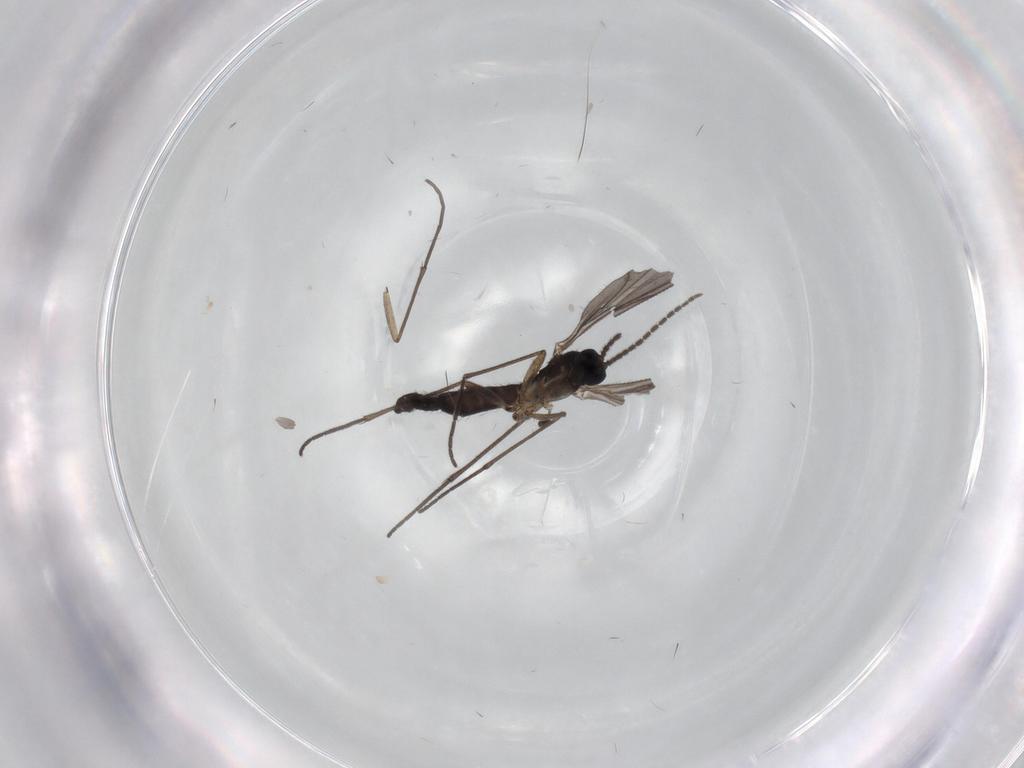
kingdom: Animalia
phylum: Arthropoda
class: Insecta
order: Diptera
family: Sciaridae
